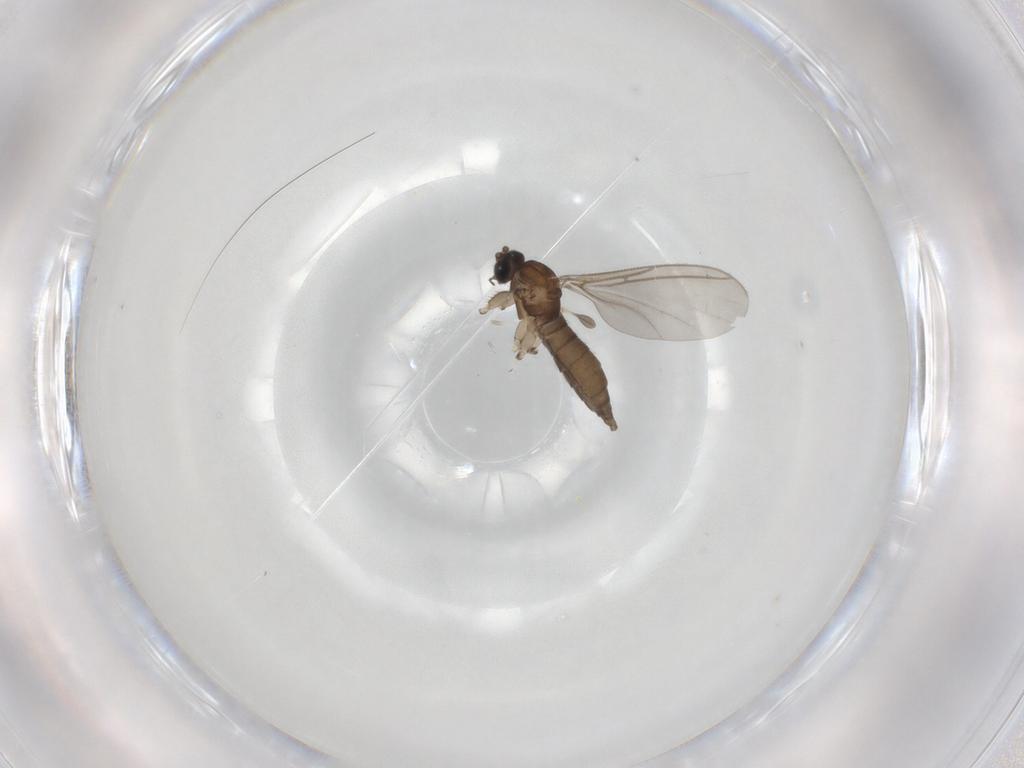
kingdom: Animalia
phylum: Arthropoda
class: Insecta
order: Diptera
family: Sciaridae
